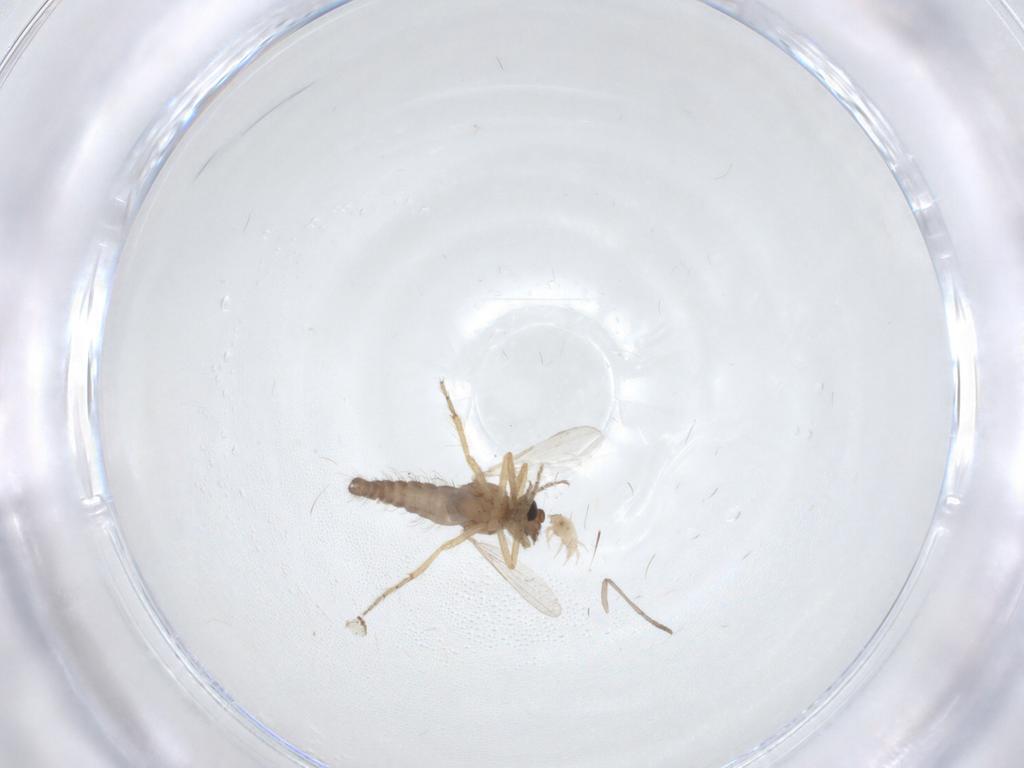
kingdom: Animalia
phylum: Arthropoda
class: Insecta
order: Diptera
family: Ceratopogonidae
